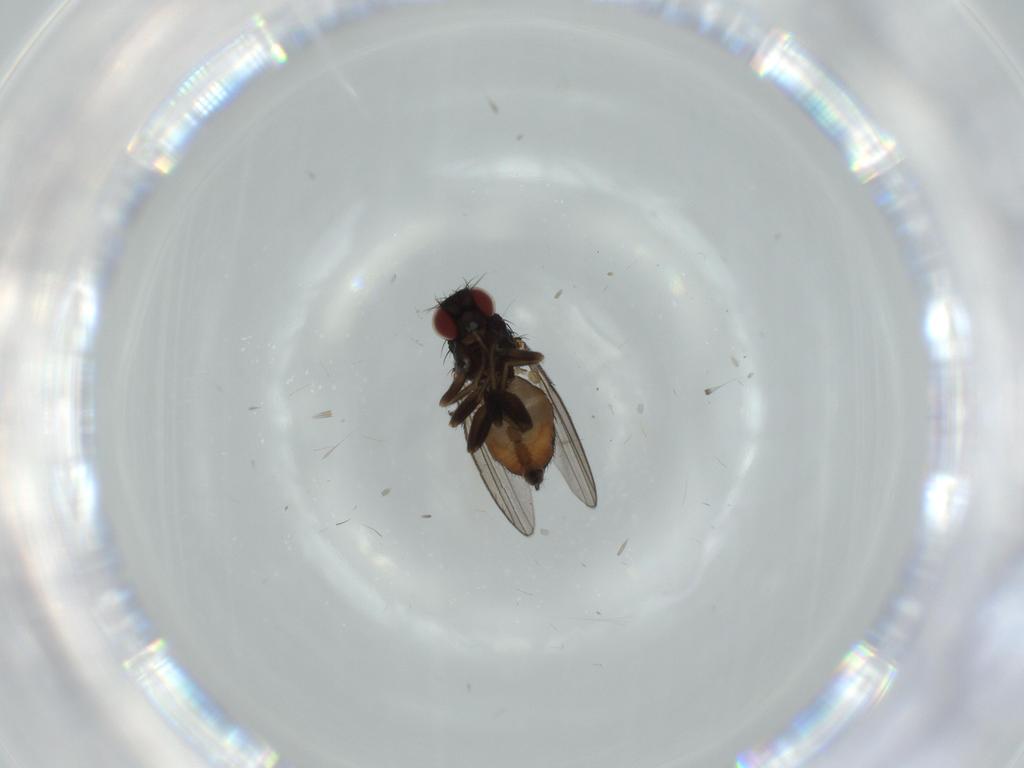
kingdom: Animalia
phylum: Arthropoda
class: Insecta
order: Diptera
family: Milichiidae
